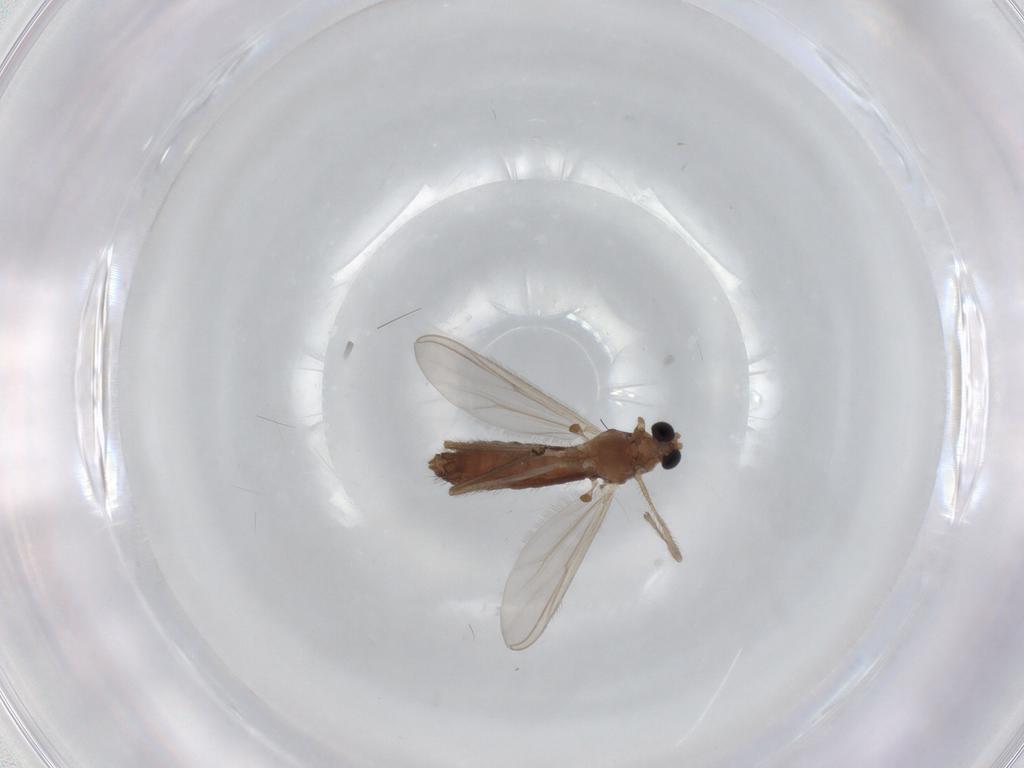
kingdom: Animalia
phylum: Arthropoda
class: Insecta
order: Diptera
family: Chironomidae
